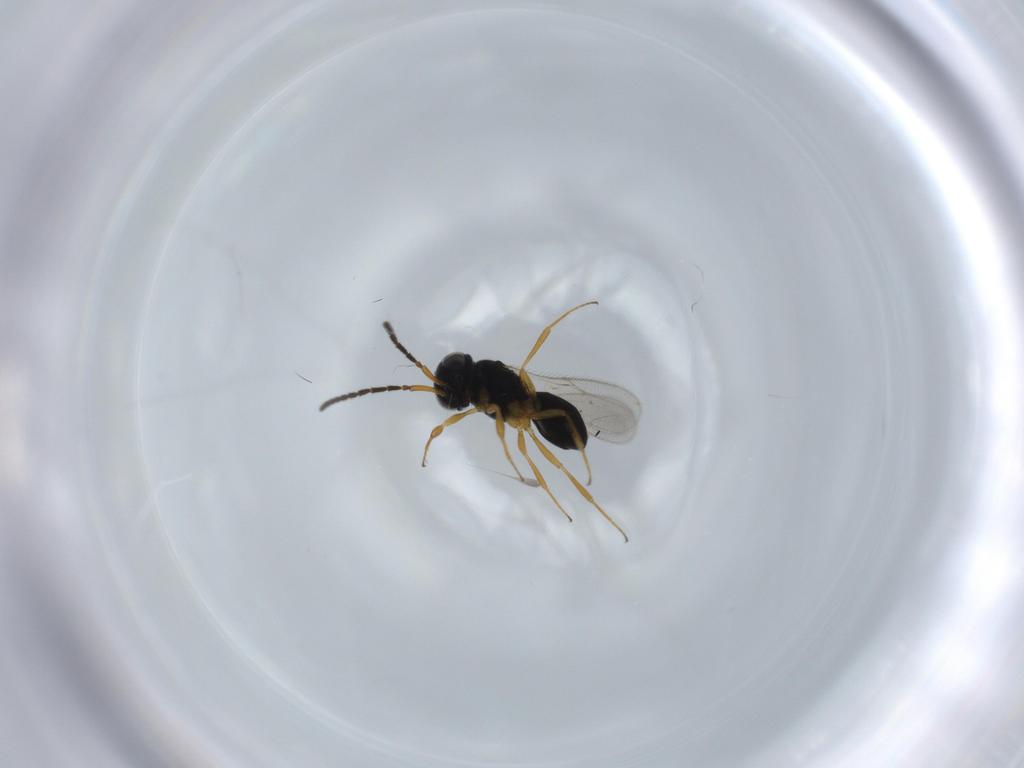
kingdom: Animalia
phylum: Arthropoda
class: Insecta
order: Hymenoptera
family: Scelionidae
